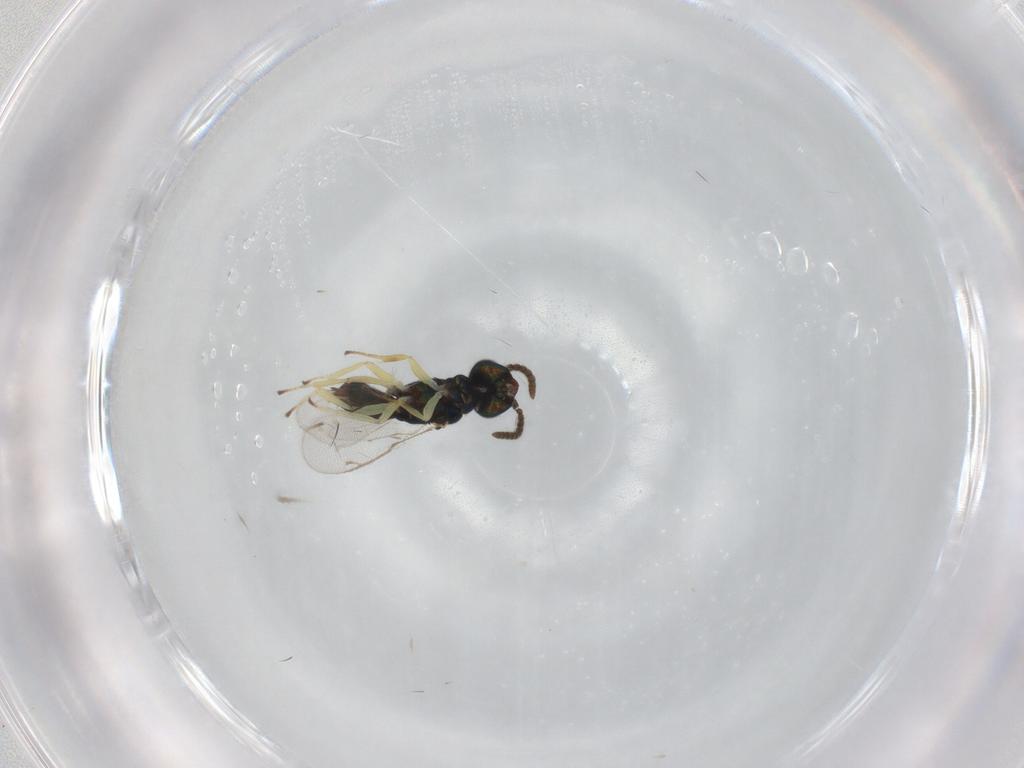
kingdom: Animalia
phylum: Arthropoda
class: Insecta
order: Hymenoptera
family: Eupelmidae
